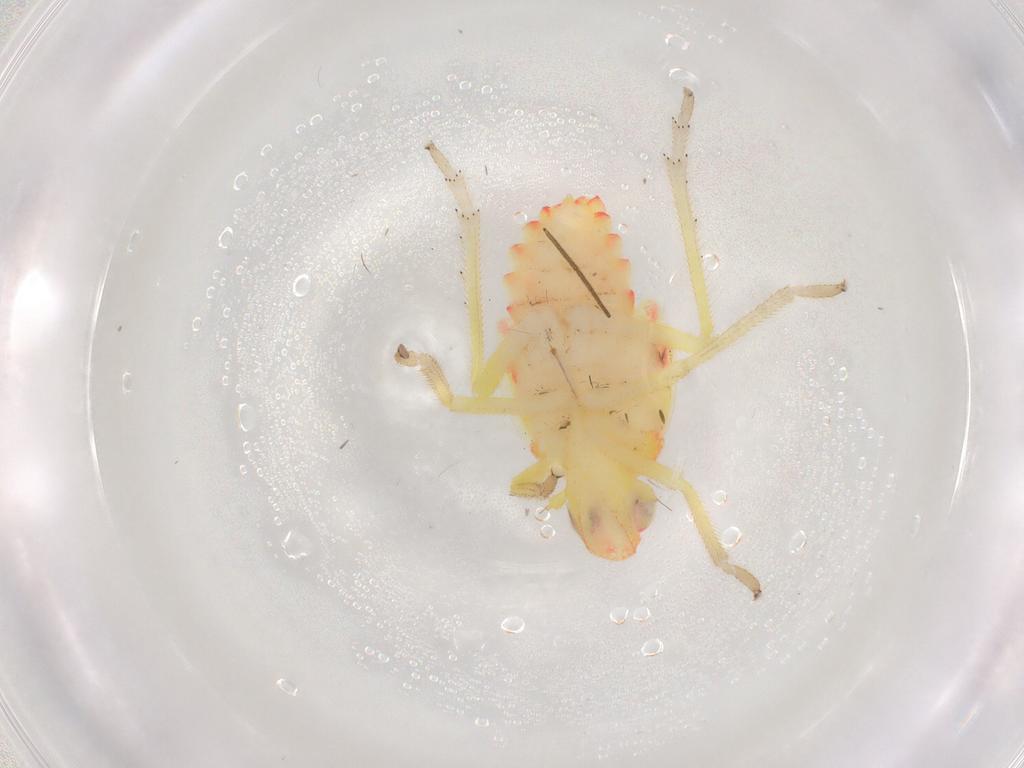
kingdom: Animalia
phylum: Arthropoda
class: Insecta
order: Hemiptera
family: Tropiduchidae
